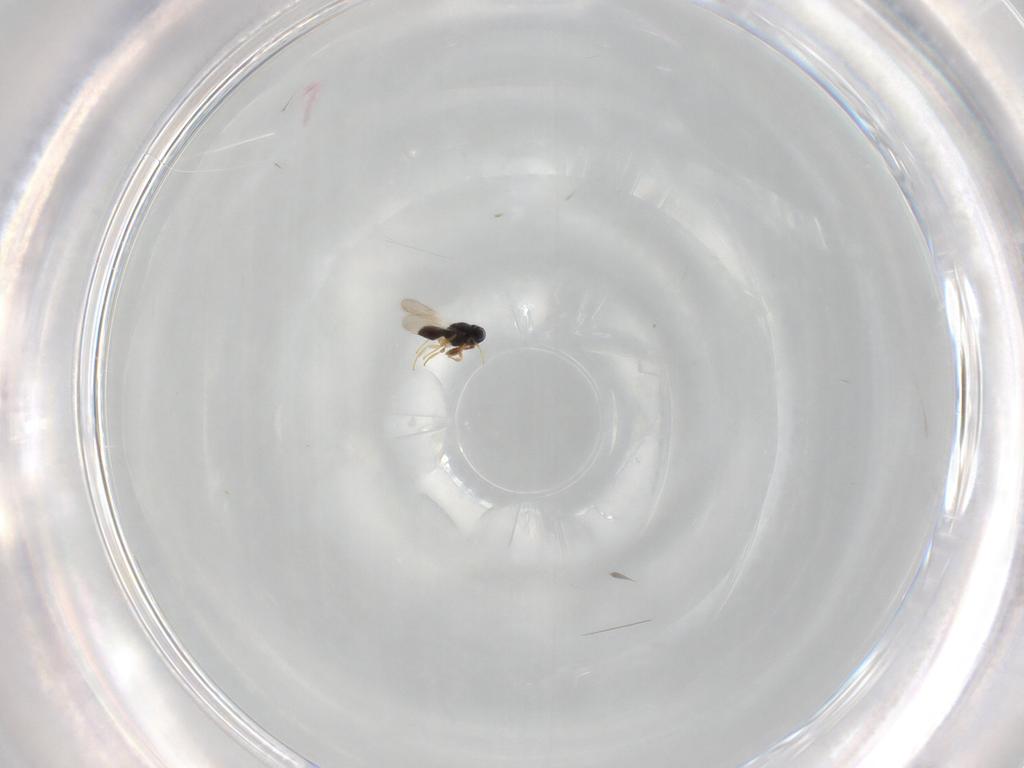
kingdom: Animalia
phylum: Arthropoda
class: Insecta
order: Hymenoptera
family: Scelionidae
